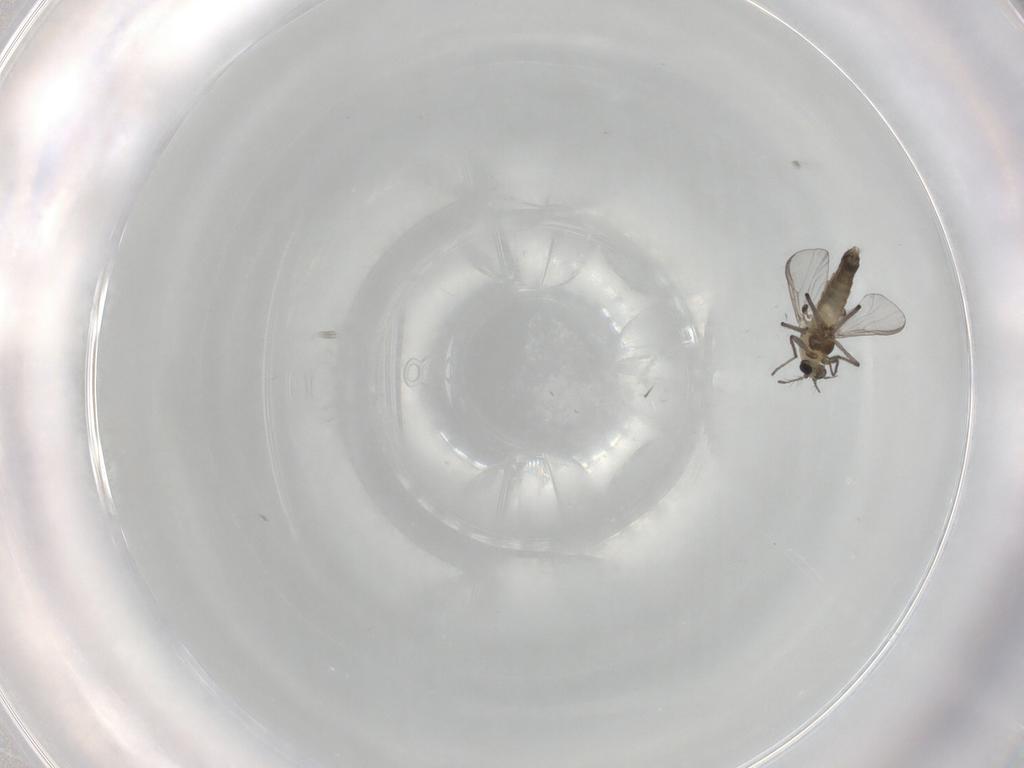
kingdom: Animalia
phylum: Arthropoda
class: Insecta
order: Diptera
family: Chironomidae
